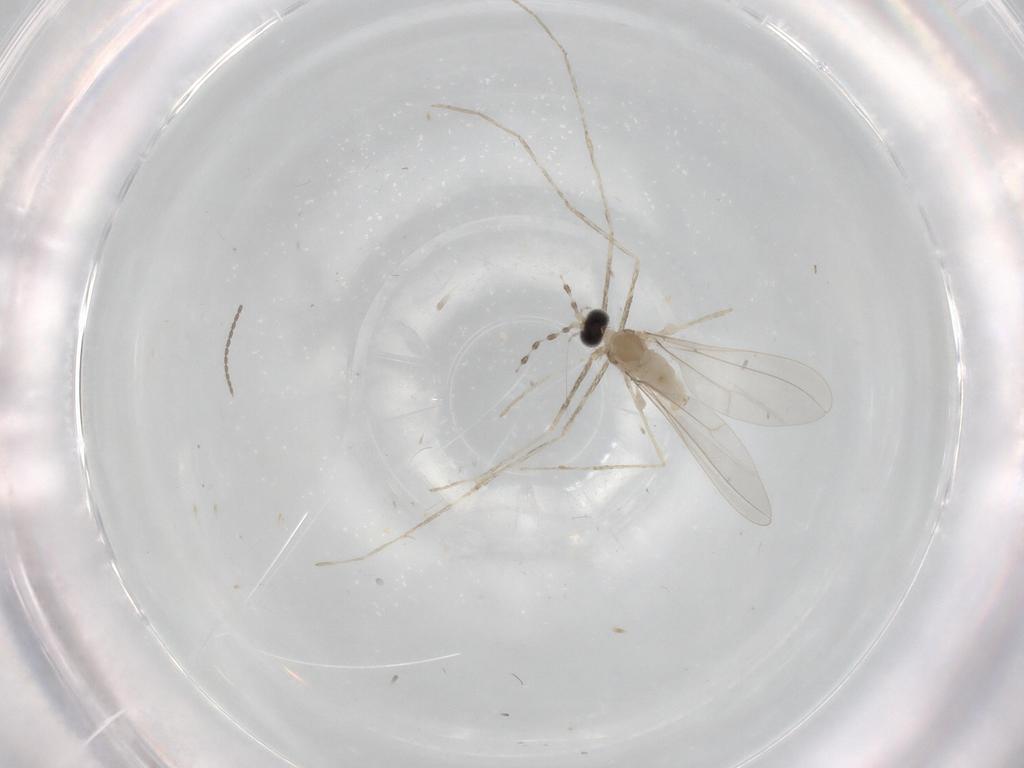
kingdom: Animalia
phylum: Arthropoda
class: Insecta
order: Diptera
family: Cecidomyiidae
